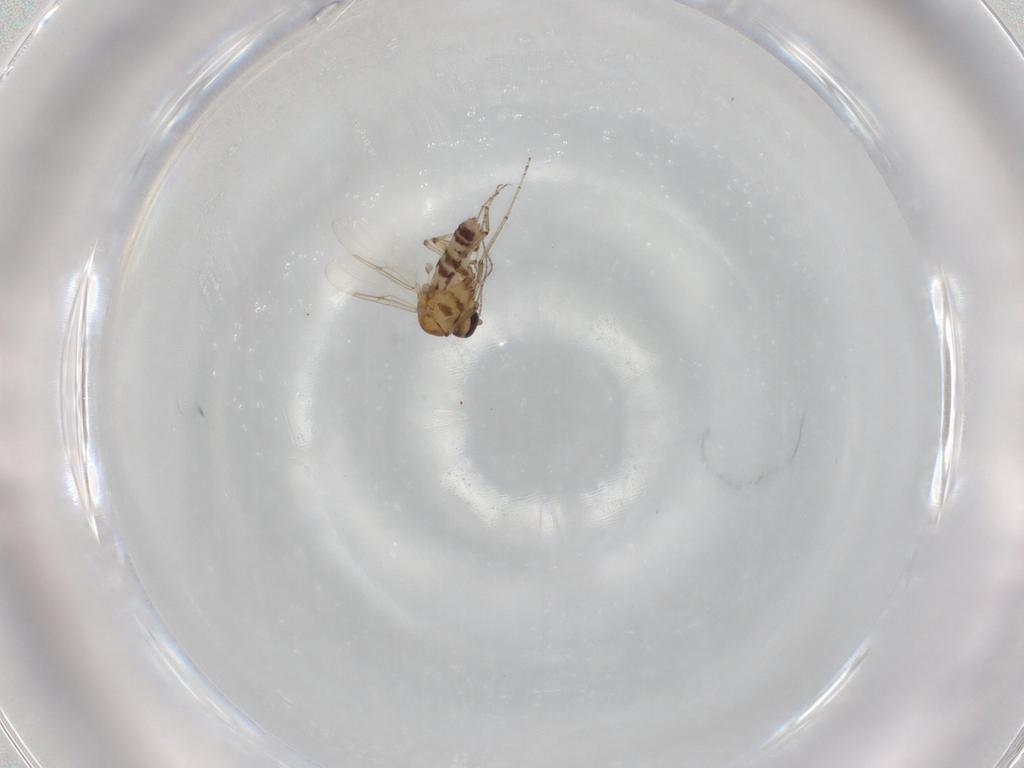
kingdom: Animalia
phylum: Arthropoda
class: Insecta
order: Diptera
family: Ceratopogonidae
